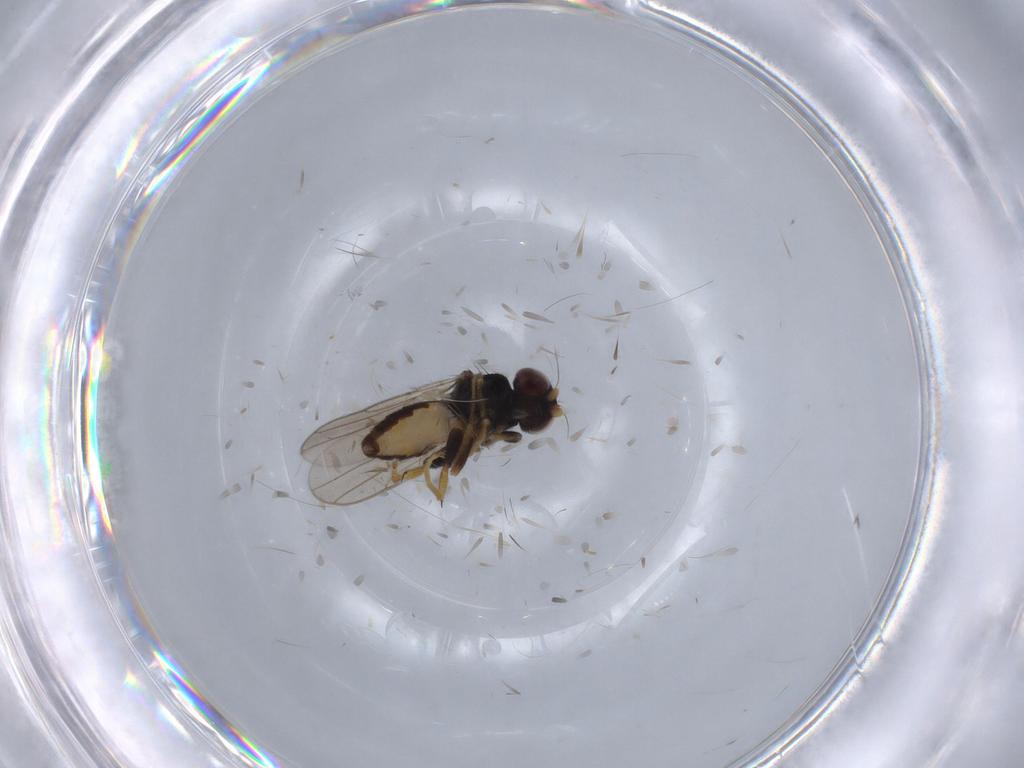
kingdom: Animalia
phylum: Arthropoda
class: Insecta
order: Diptera
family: Chloropidae
